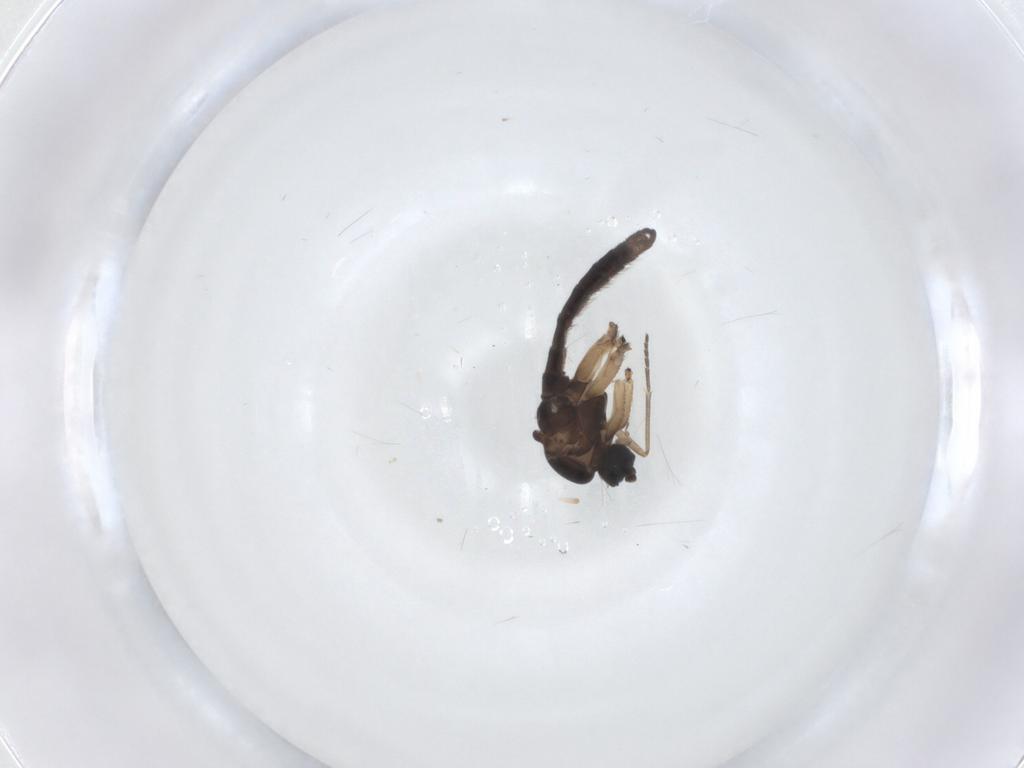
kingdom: Animalia
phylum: Arthropoda
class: Insecta
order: Diptera
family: Sciaridae
